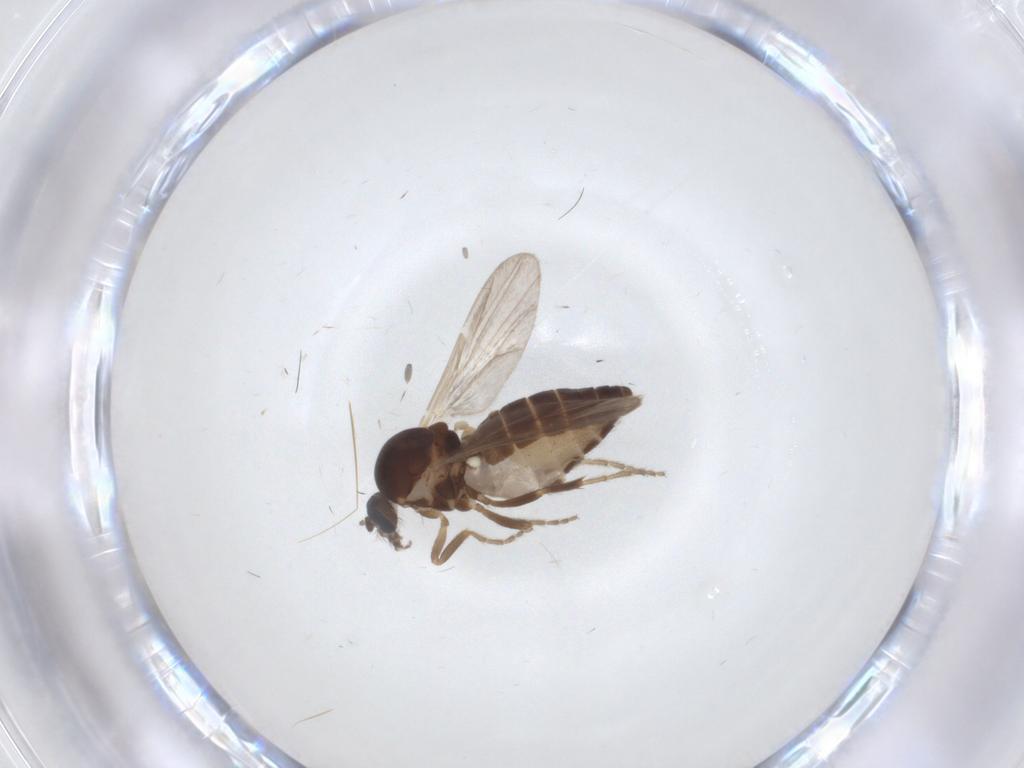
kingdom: Animalia
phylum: Arthropoda
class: Insecta
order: Diptera
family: Ceratopogonidae
